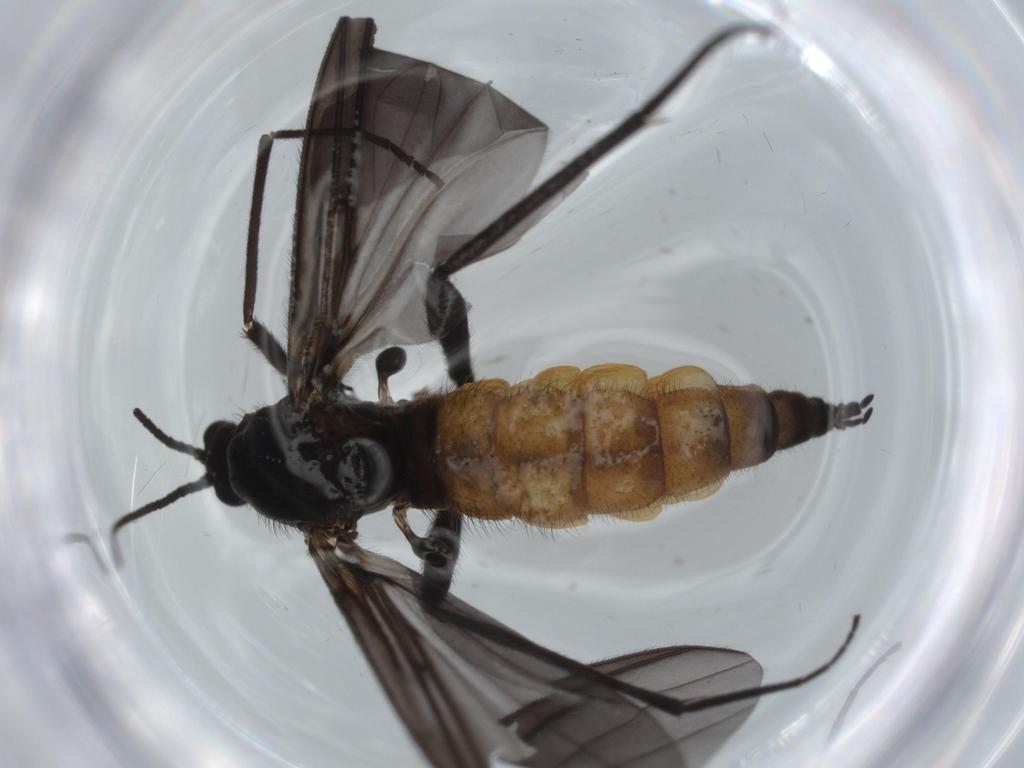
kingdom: Animalia
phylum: Arthropoda
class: Insecta
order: Diptera
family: Dolichopodidae
